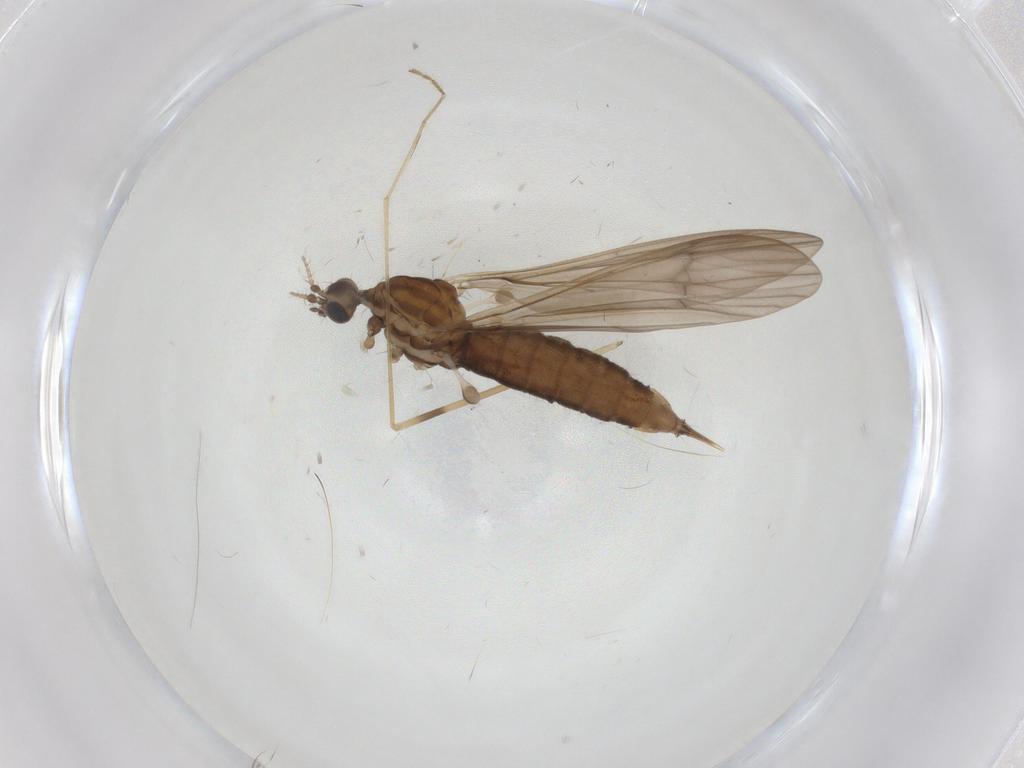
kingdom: Animalia
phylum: Arthropoda
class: Insecta
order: Diptera
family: Limoniidae
